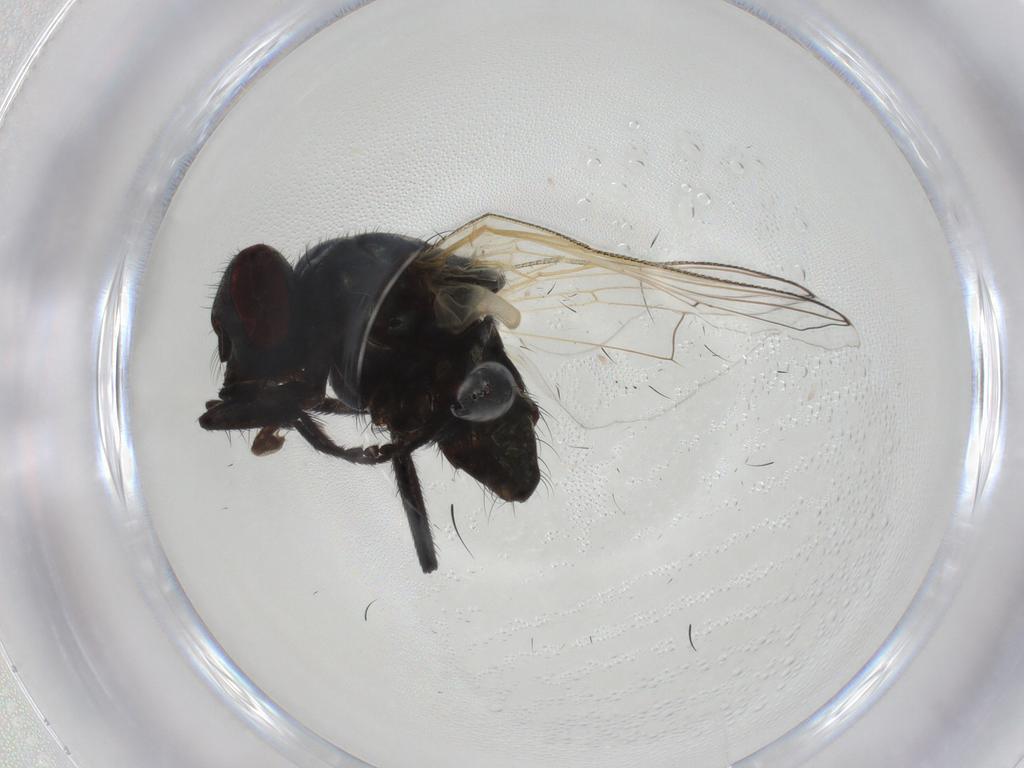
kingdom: Animalia
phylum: Arthropoda
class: Insecta
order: Diptera
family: Muscidae
